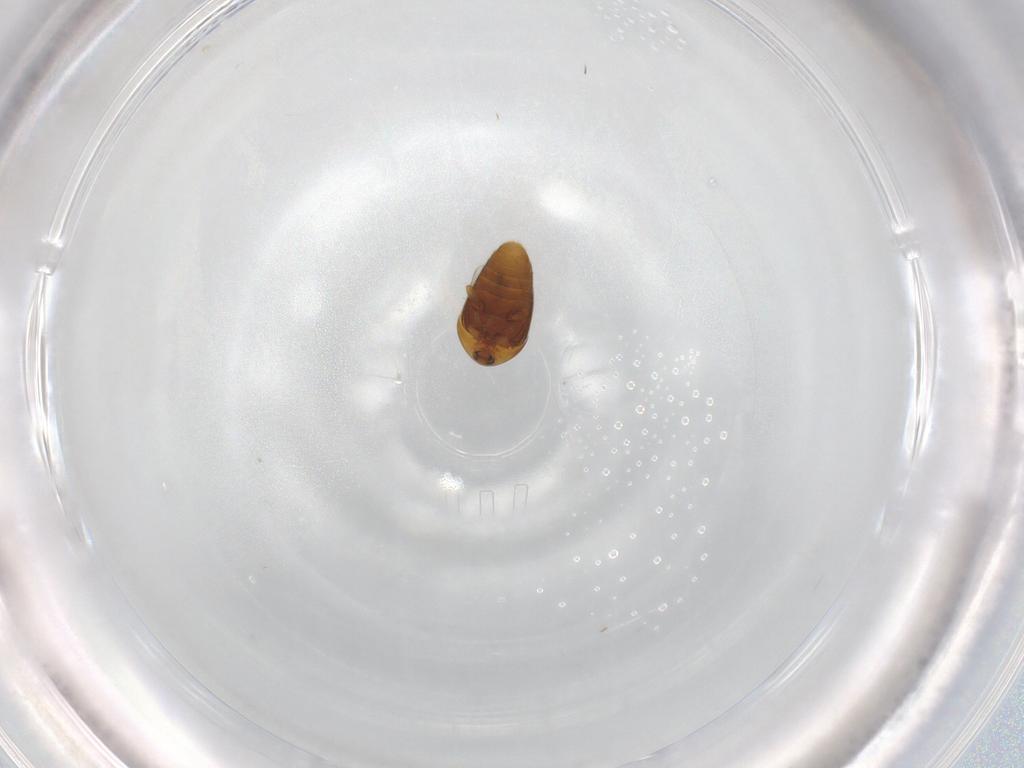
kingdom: Animalia
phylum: Arthropoda
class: Insecta
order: Coleoptera
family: Corylophidae
